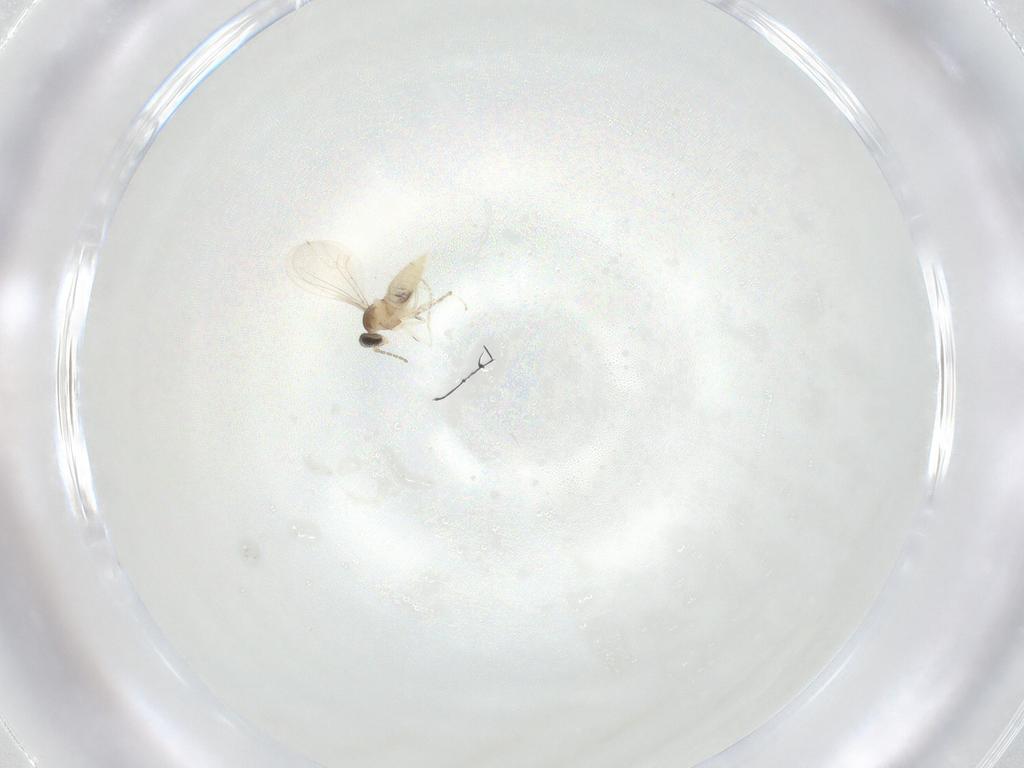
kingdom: Animalia
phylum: Arthropoda
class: Insecta
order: Diptera
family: Cecidomyiidae
